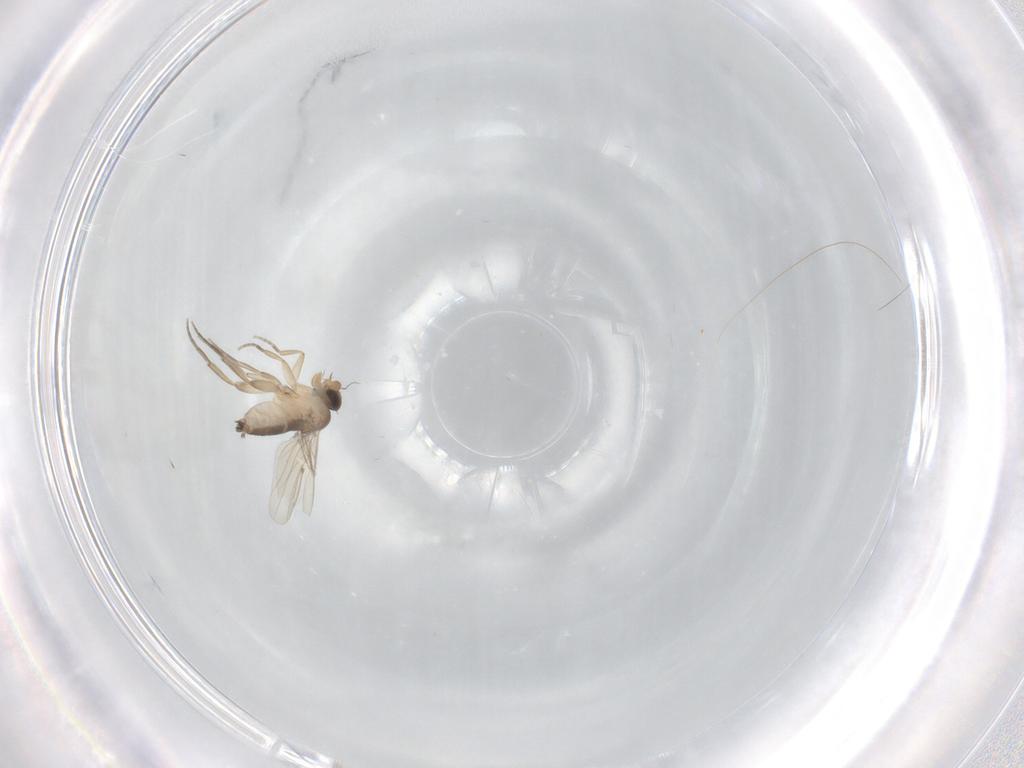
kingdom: Animalia
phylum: Arthropoda
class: Insecta
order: Diptera
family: Phoridae
